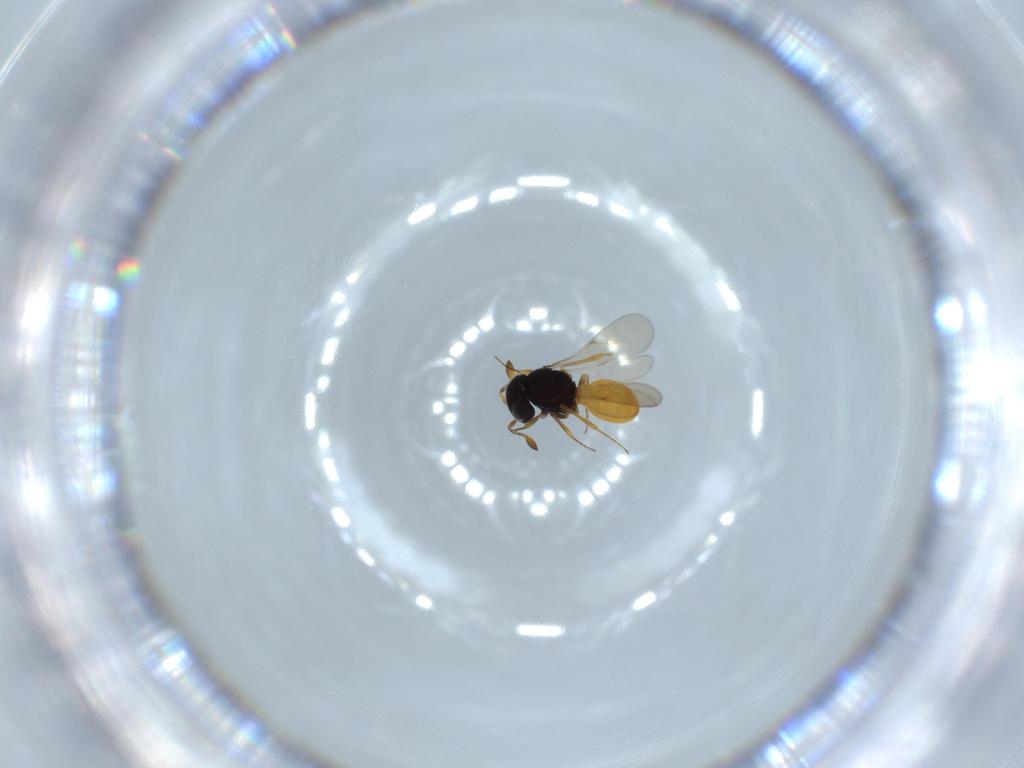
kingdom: Animalia
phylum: Arthropoda
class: Insecta
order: Hymenoptera
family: Scelionidae
